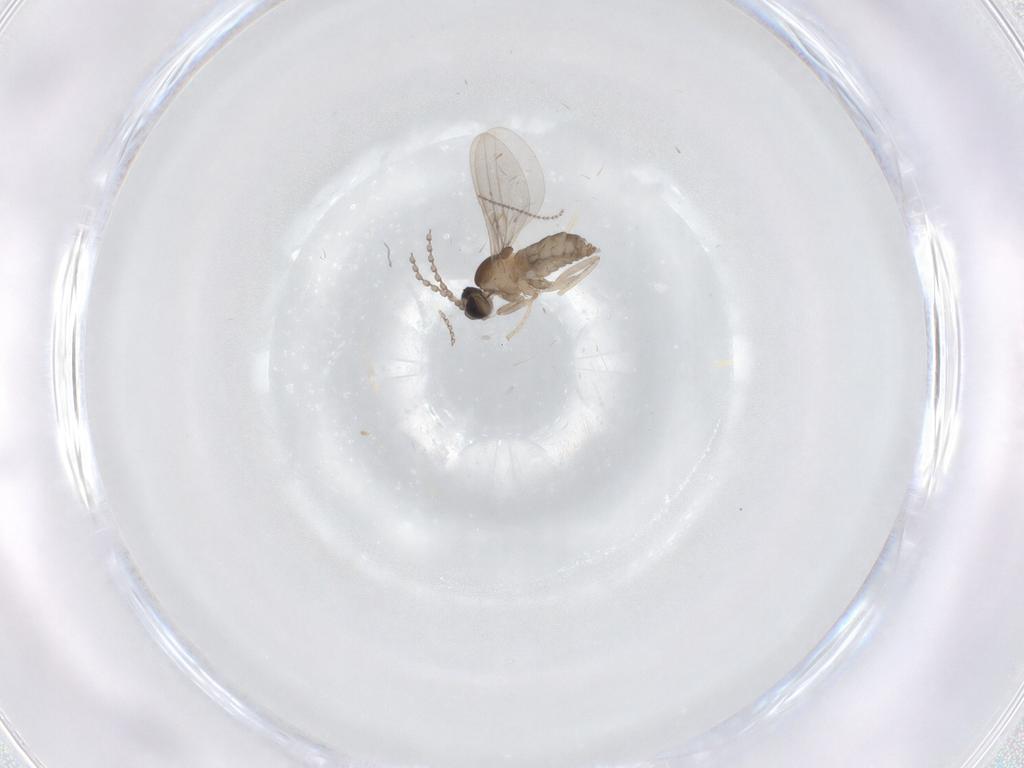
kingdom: Animalia
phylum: Arthropoda
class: Insecta
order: Diptera
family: Cecidomyiidae
